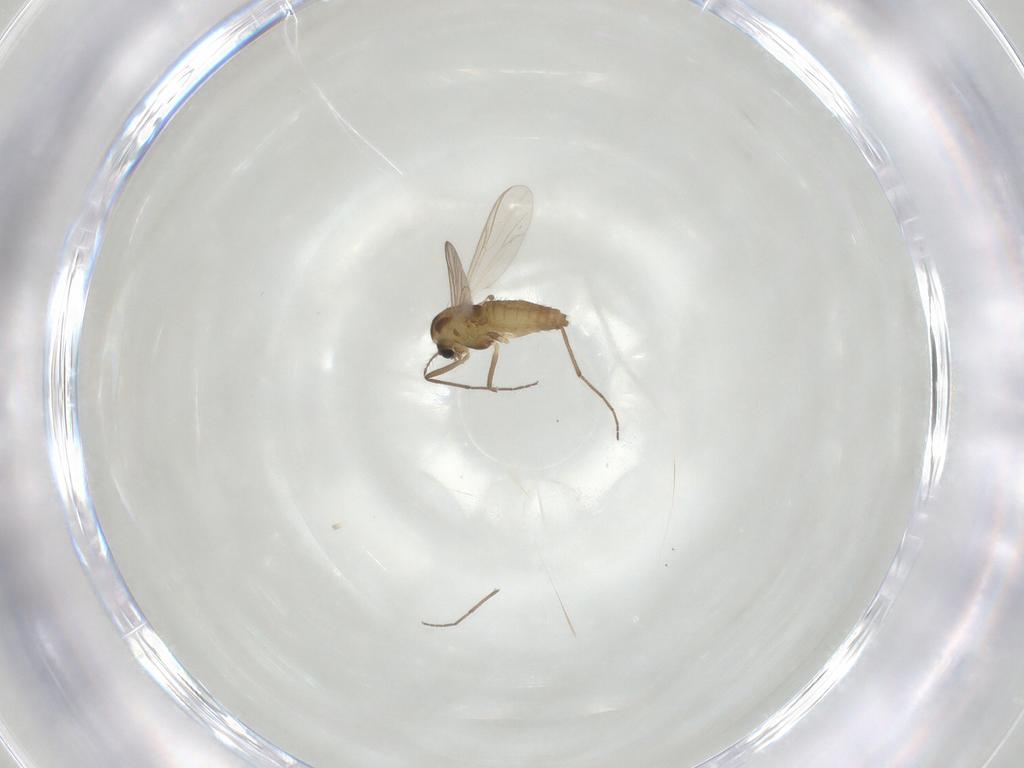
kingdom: Animalia
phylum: Arthropoda
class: Insecta
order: Diptera
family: Chironomidae
